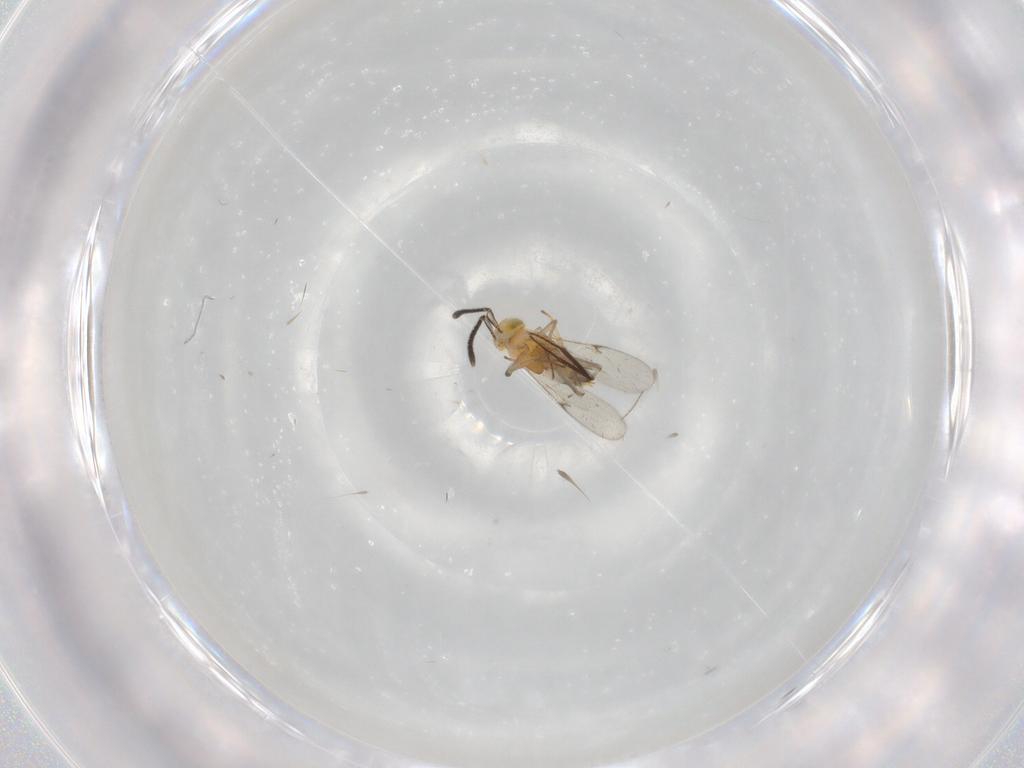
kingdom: Animalia
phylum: Arthropoda
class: Insecta
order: Hymenoptera
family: Encyrtidae
